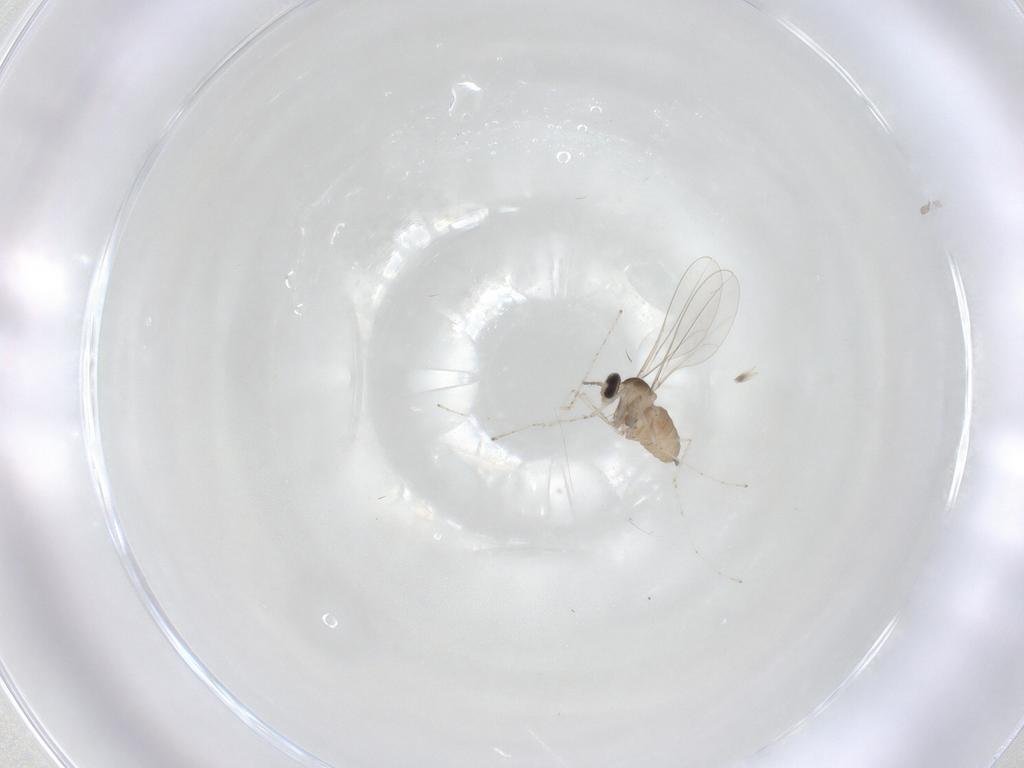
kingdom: Animalia
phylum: Arthropoda
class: Insecta
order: Diptera
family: Cecidomyiidae
